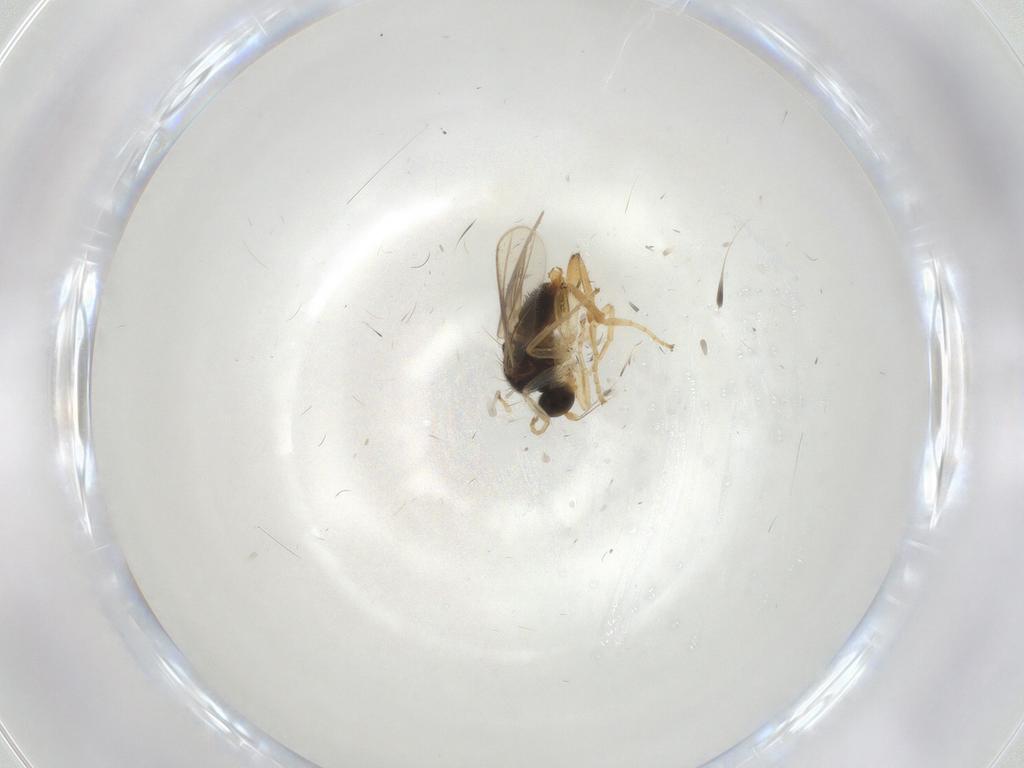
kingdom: Animalia
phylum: Arthropoda
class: Insecta
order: Diptera
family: Hybotidae
